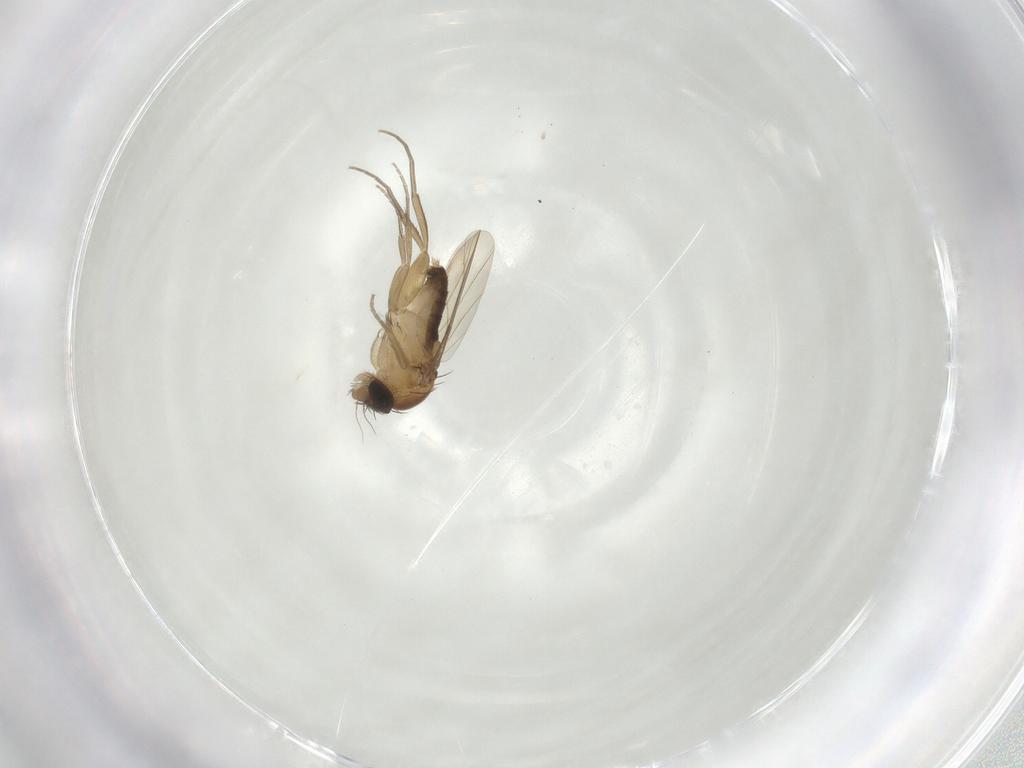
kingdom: Animalia
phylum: Arthropoda
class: Insecta
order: Diptera
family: Phoridae
